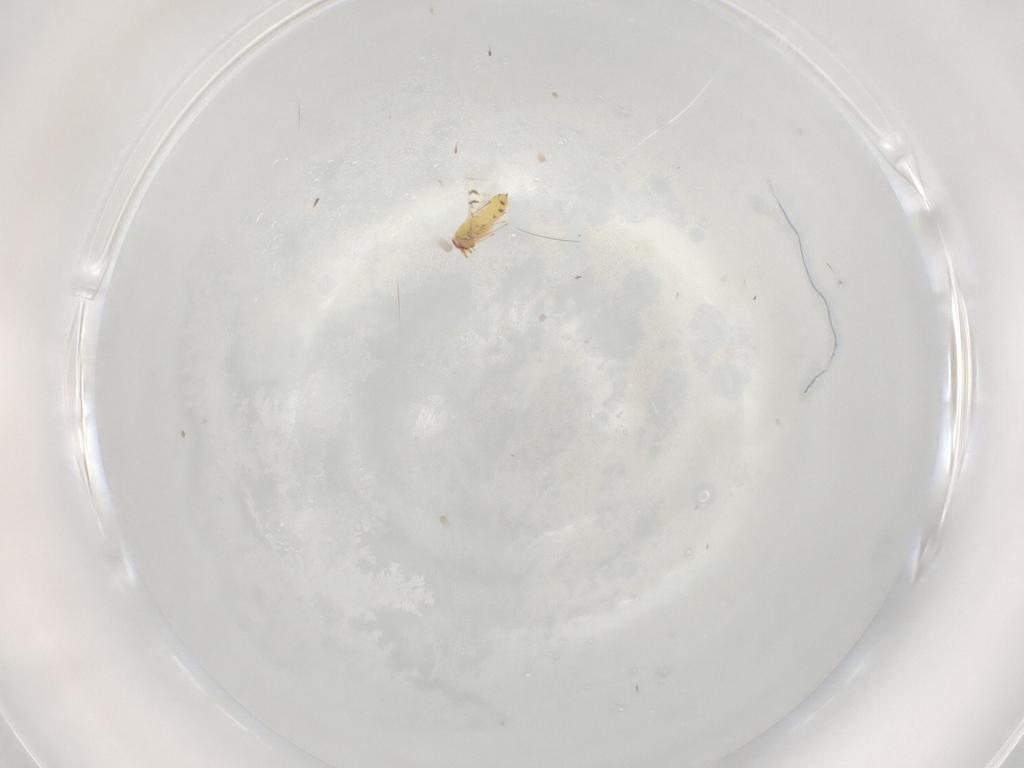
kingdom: Animalia
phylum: Arthropoda
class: Insecta
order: Hymenoptera
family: Trichogrammatidae
